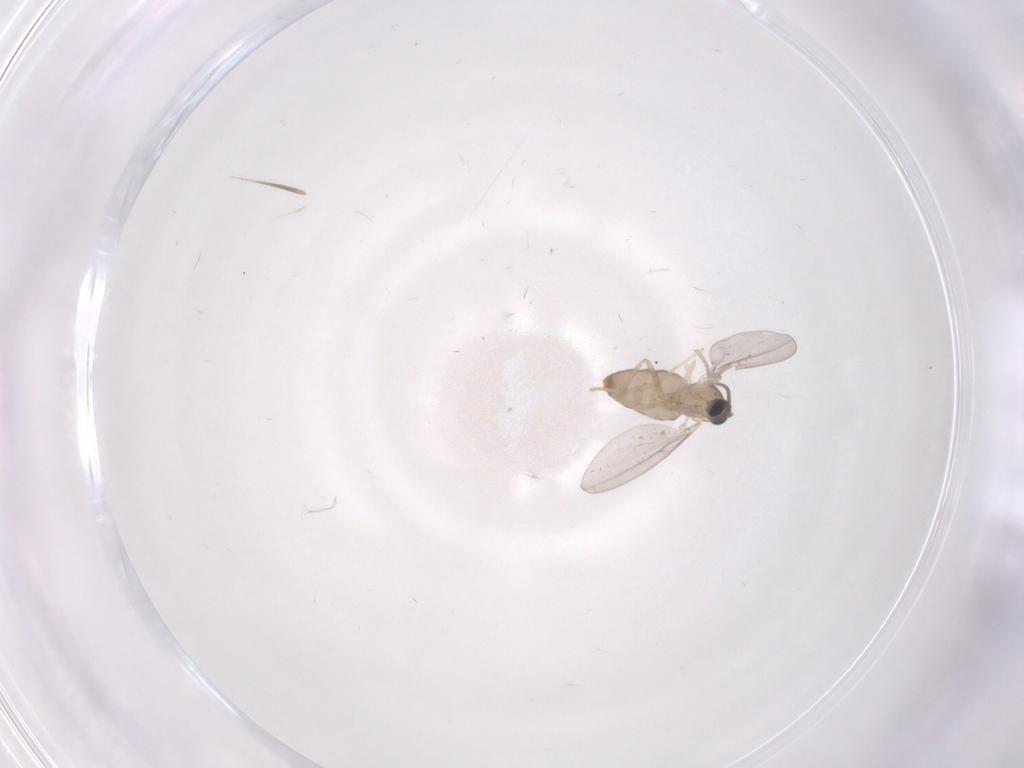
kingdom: Animalia
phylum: Arthropoda
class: Insecta
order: Diptera
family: Cecidomyiidae
